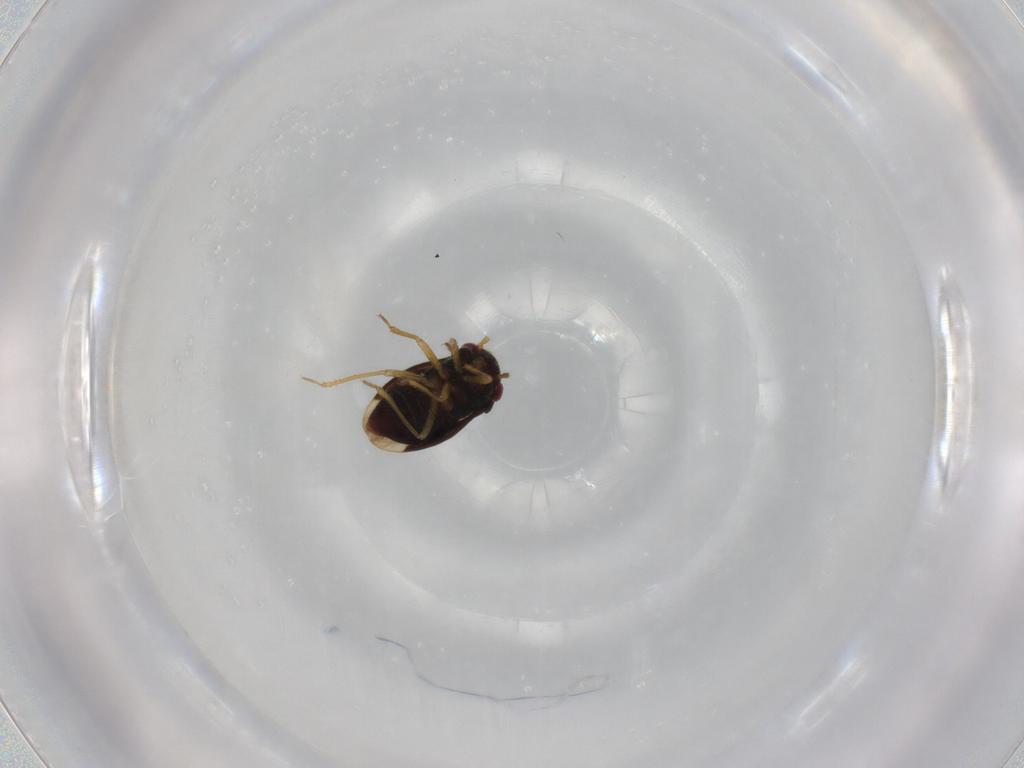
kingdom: Animalia
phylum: Arthropoda
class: Insecta
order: Hemiptera
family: Schizopteridae
